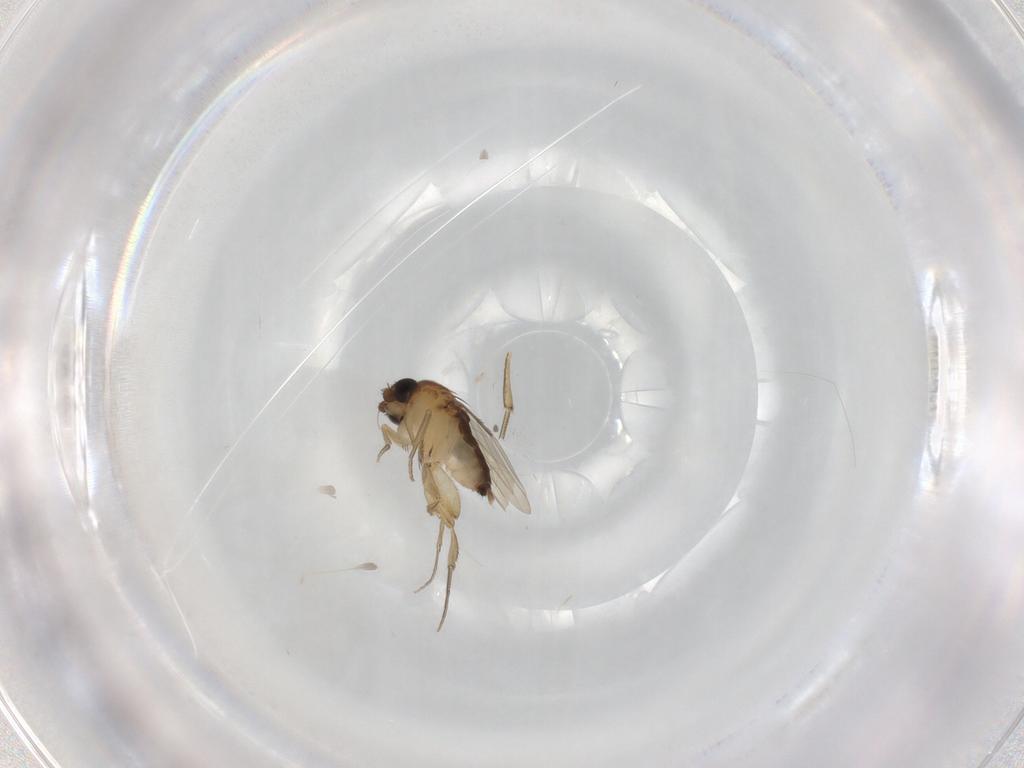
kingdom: Animalia
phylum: Arthropoda
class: Insecta
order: Diptera
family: Phoridae
